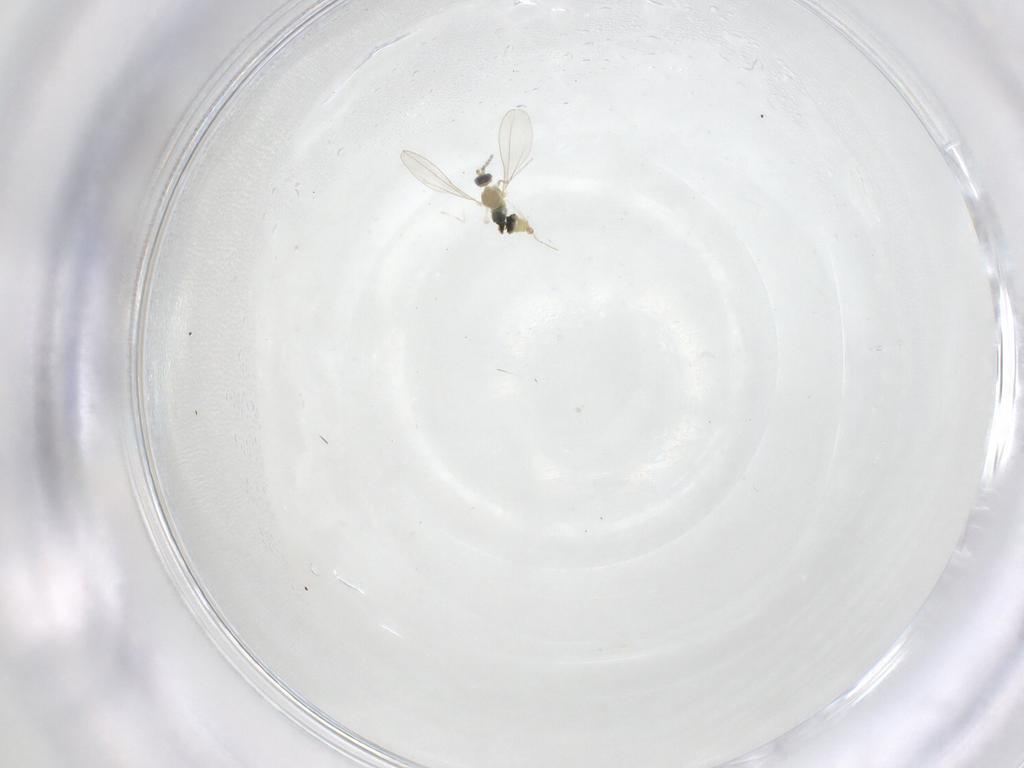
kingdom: Animalia
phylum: Arthropoda
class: Insecta
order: Diptera
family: Cecidomyiidae
